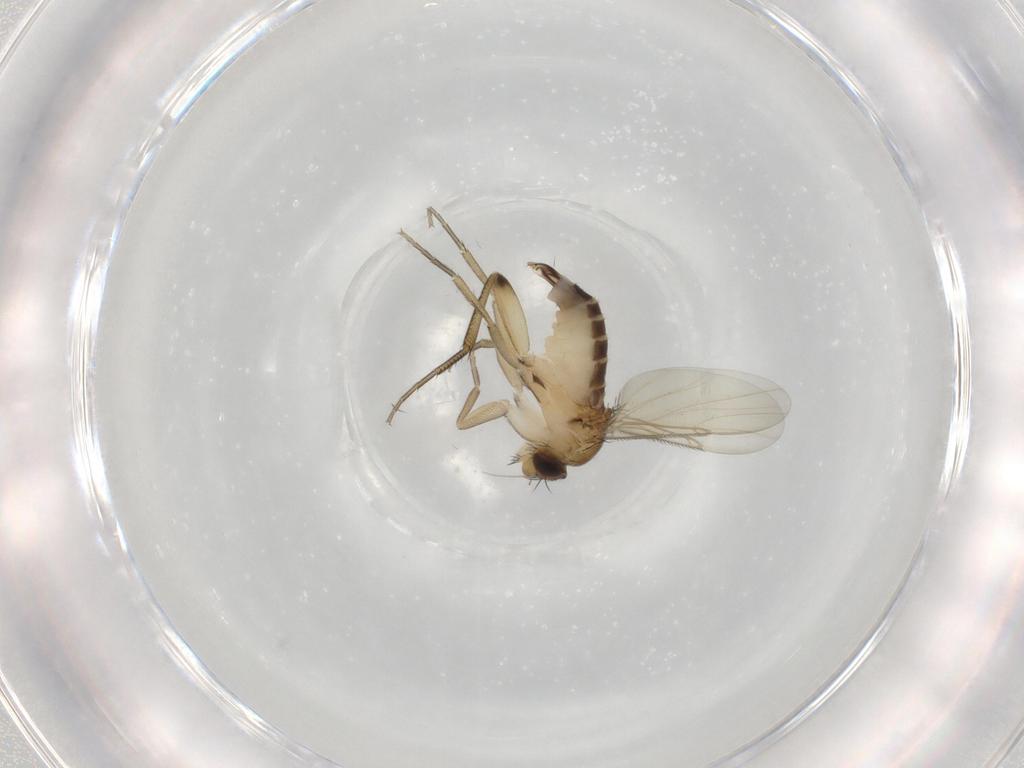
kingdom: Animalia
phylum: Arthropoda
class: Insecta
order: Diptera
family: Phoridae
